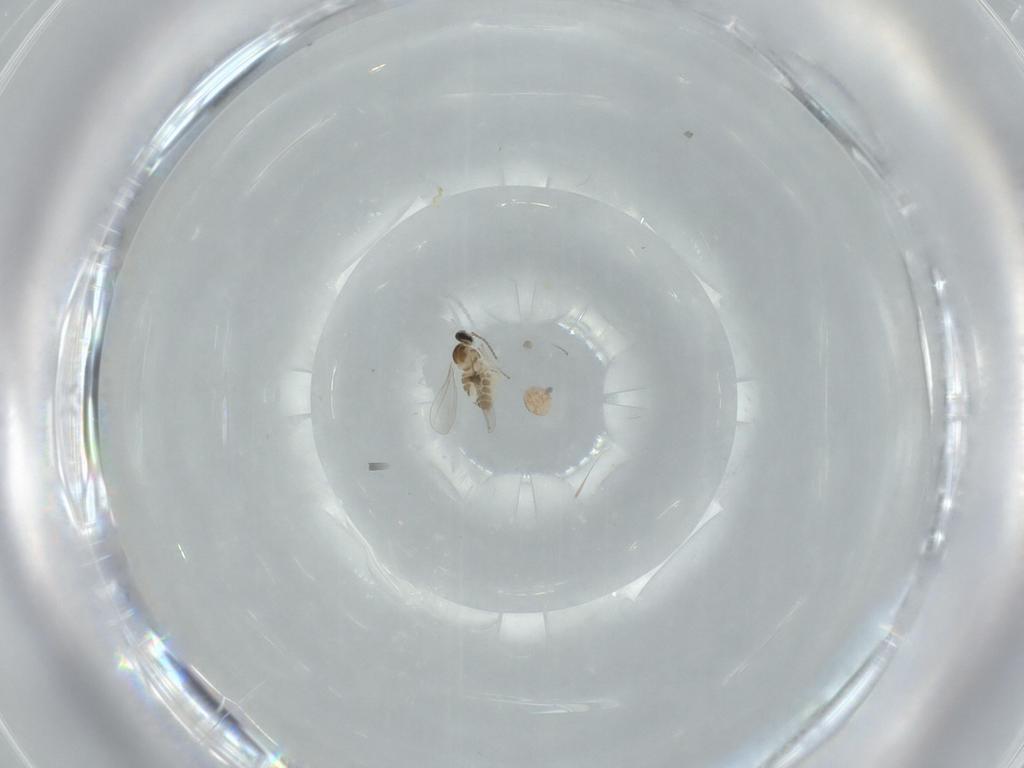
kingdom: Animalia
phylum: Arthropoda
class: Insecta
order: Diptera
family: Cecidomyiidae
